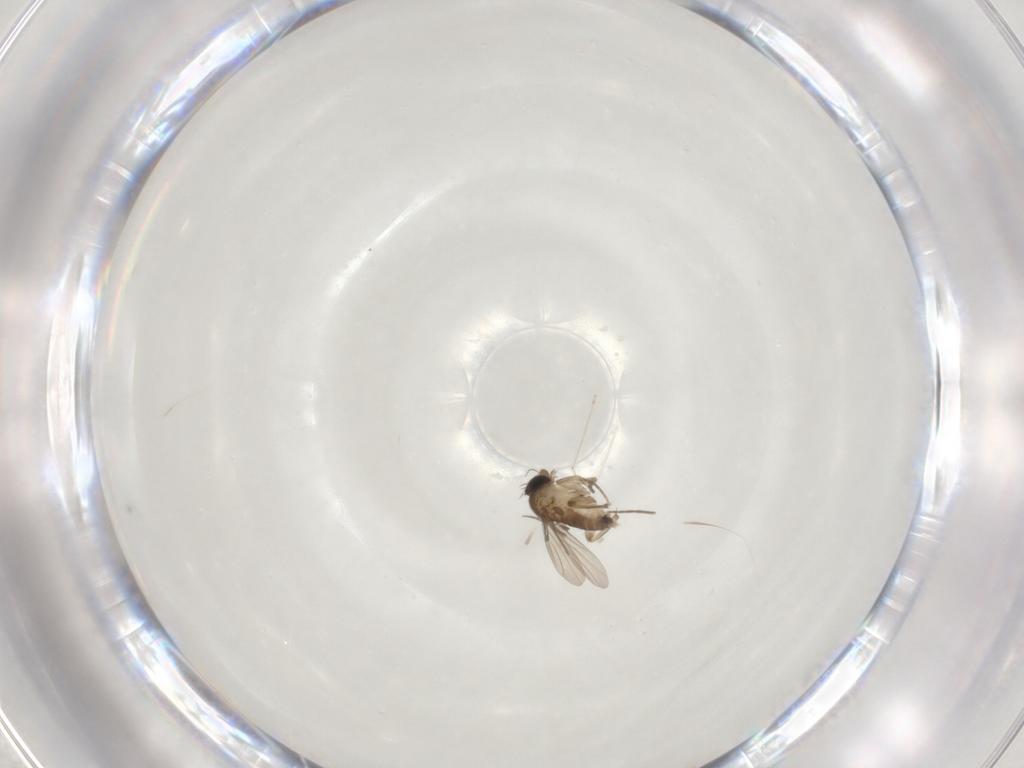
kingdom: Animalia
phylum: Arthropoda
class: Insecta
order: Diptera
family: Phoridae
